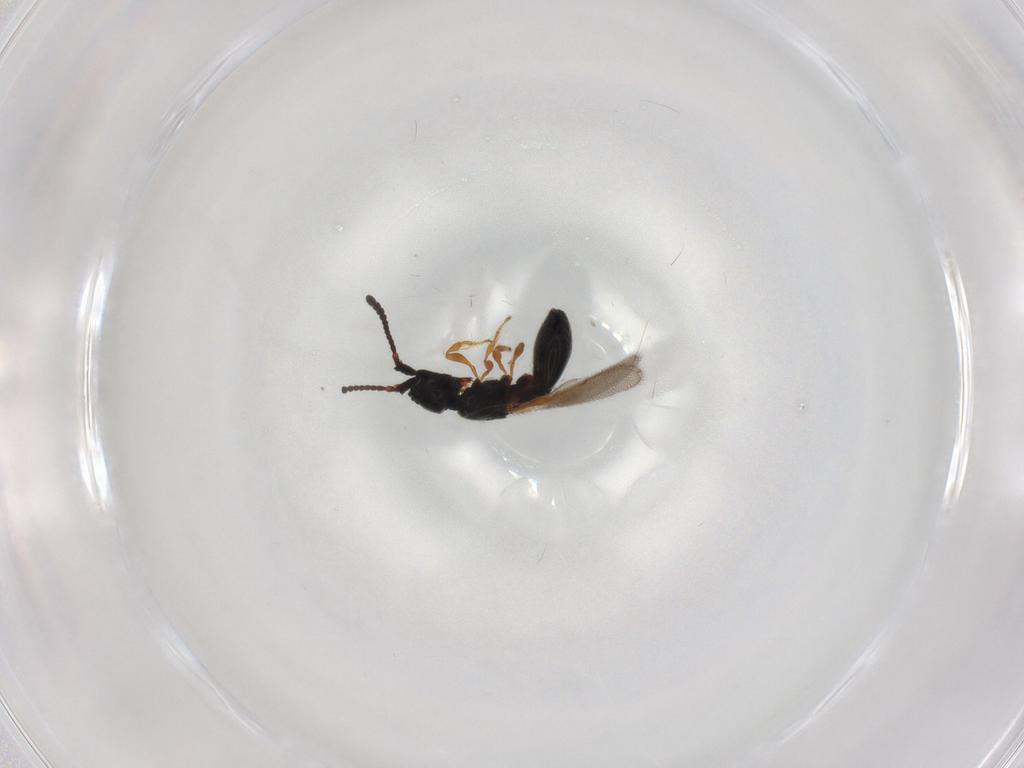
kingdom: Animalia
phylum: Arthropoda
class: Insecta
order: Hymenoptera
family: Diapriidae
